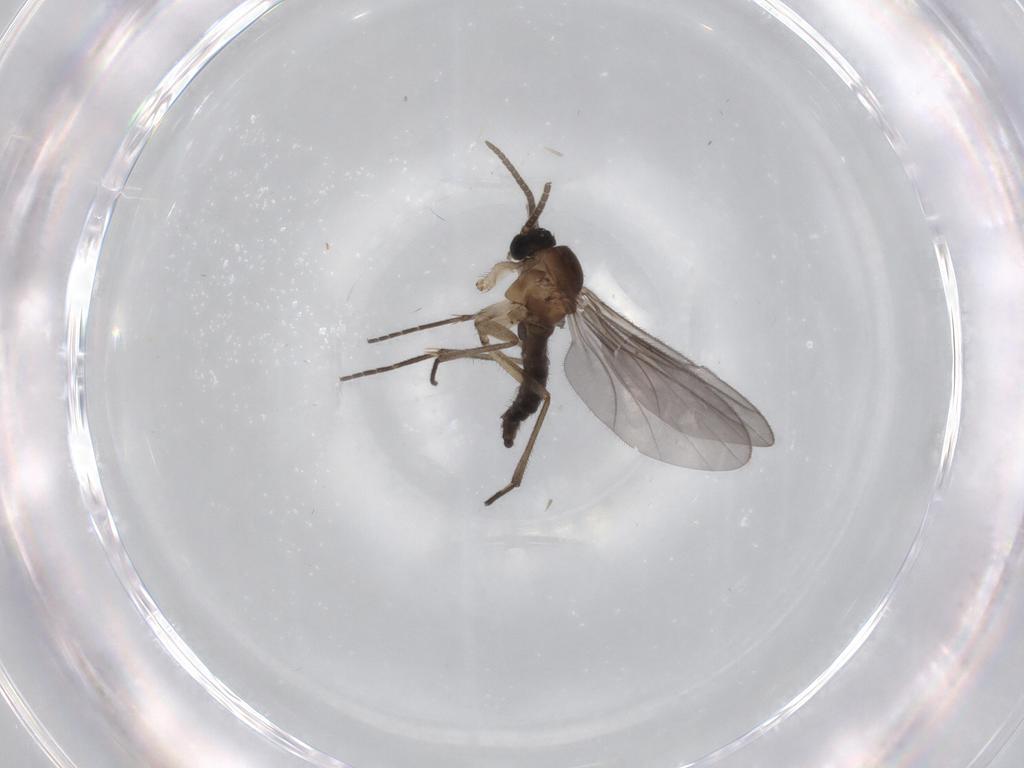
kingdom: Animalia
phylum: Arthropoda
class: Insecta
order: Diptera
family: Sciaridae
